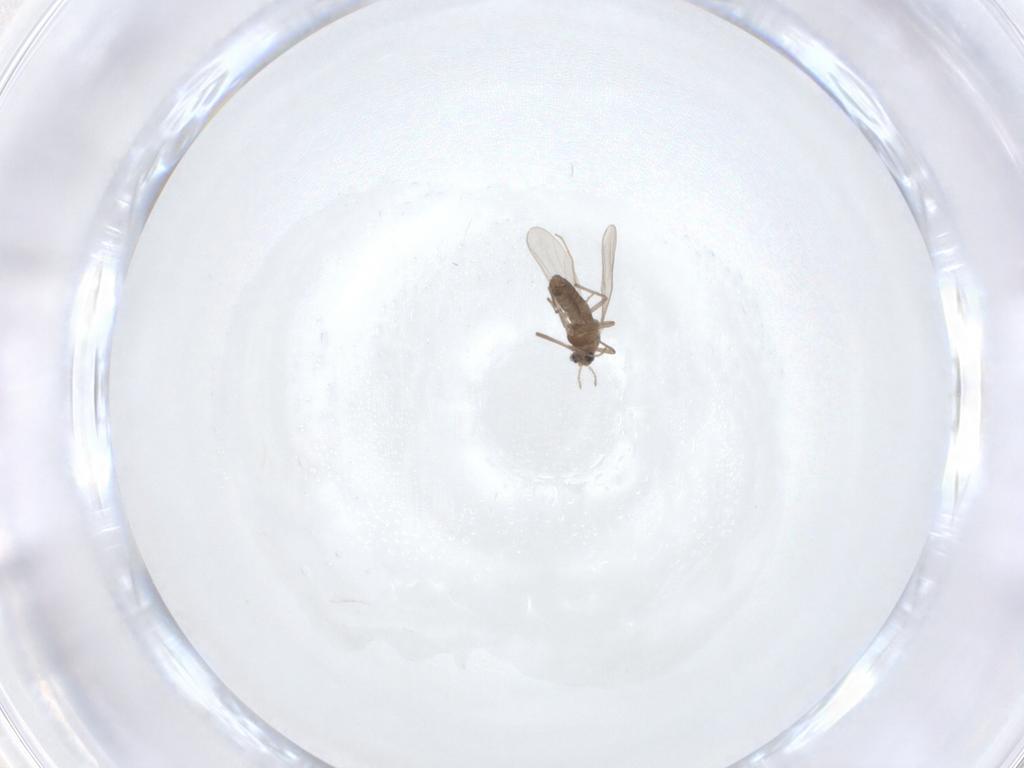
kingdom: Animalia
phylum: Arthropoda
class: Insecta
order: Diptera
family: Chironomidae
